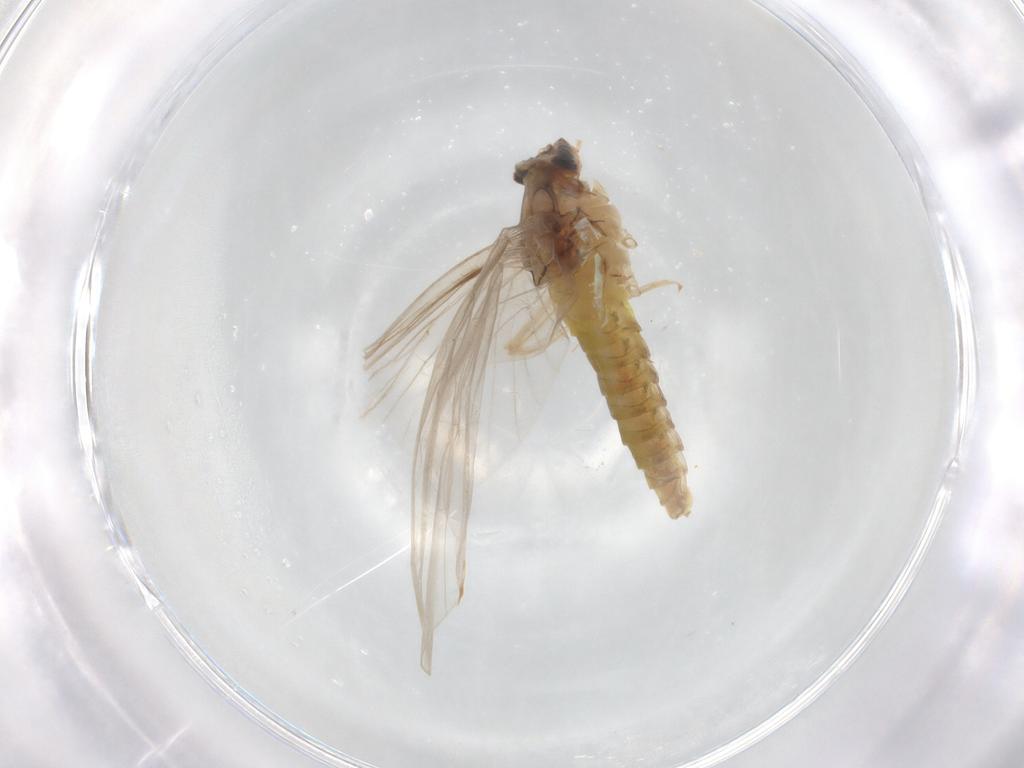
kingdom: Animalia
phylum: Arthropoda
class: Insecta
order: Ephemeroptera
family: Baetidae
